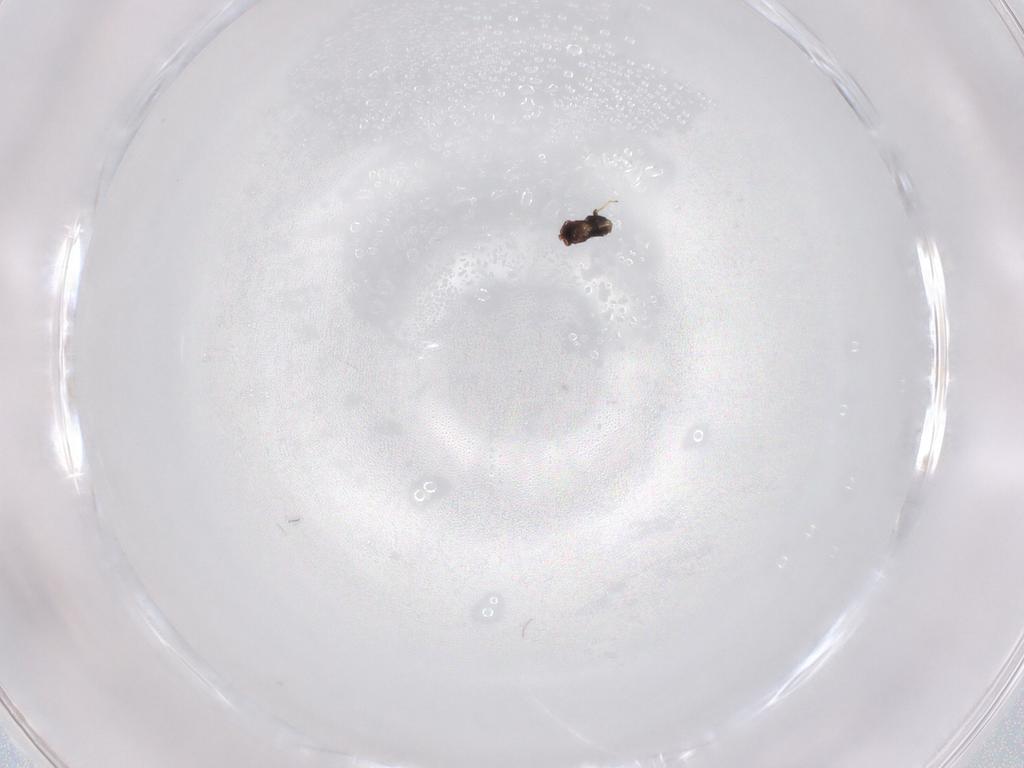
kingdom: Animalia
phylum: Arthropoda
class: Insecta
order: Hymenoptera
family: Trichogrammatidae
